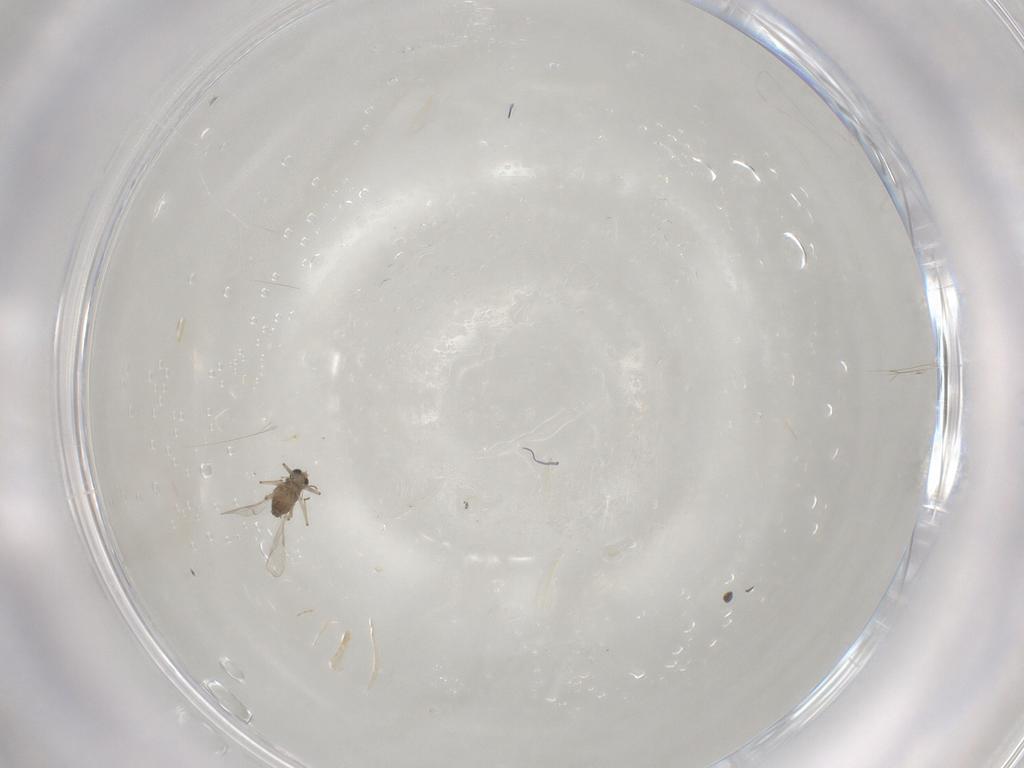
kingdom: Animalia
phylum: Arthropoda
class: Insecta
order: Diptera
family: Chironomidae
